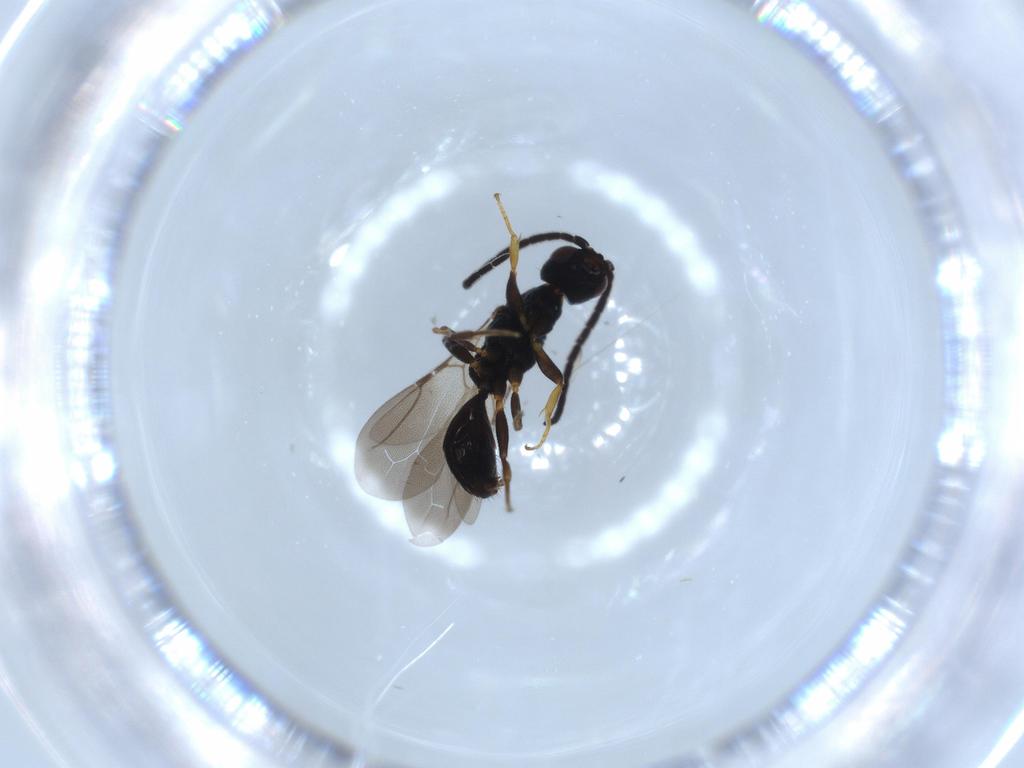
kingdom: Animalia
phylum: Arthropoda
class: Insecta
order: Hymenoptera
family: Bethylidae
